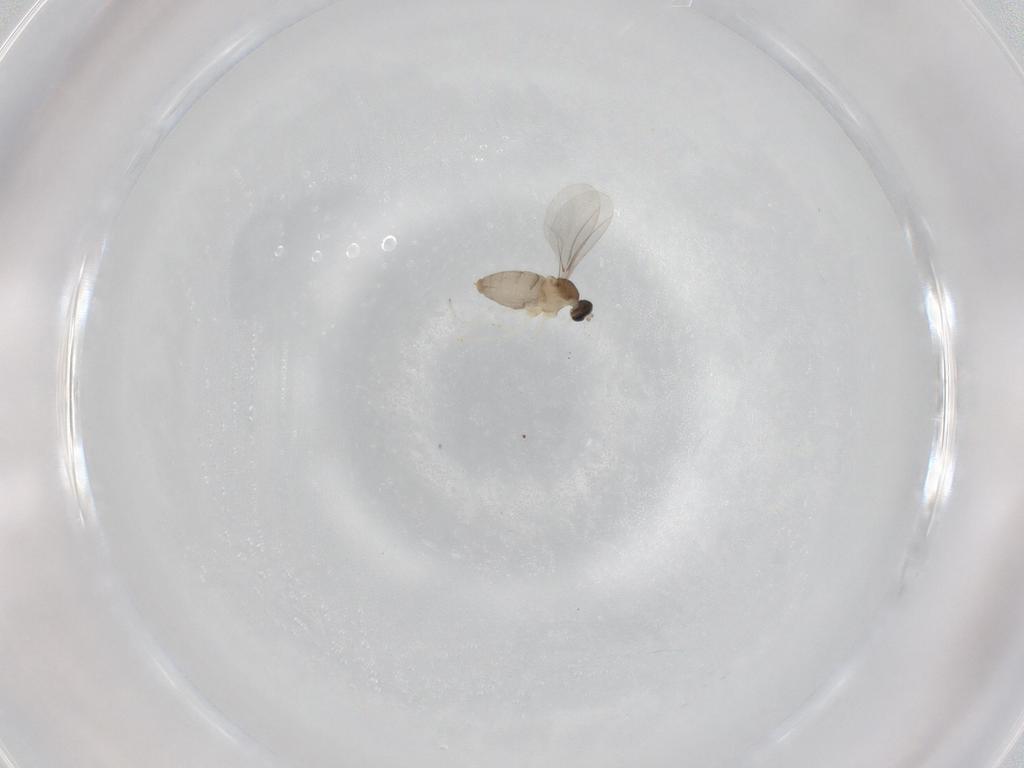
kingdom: Animalia
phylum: Arthropoda
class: Insecta
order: Diptera
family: Cecidomyiidae
